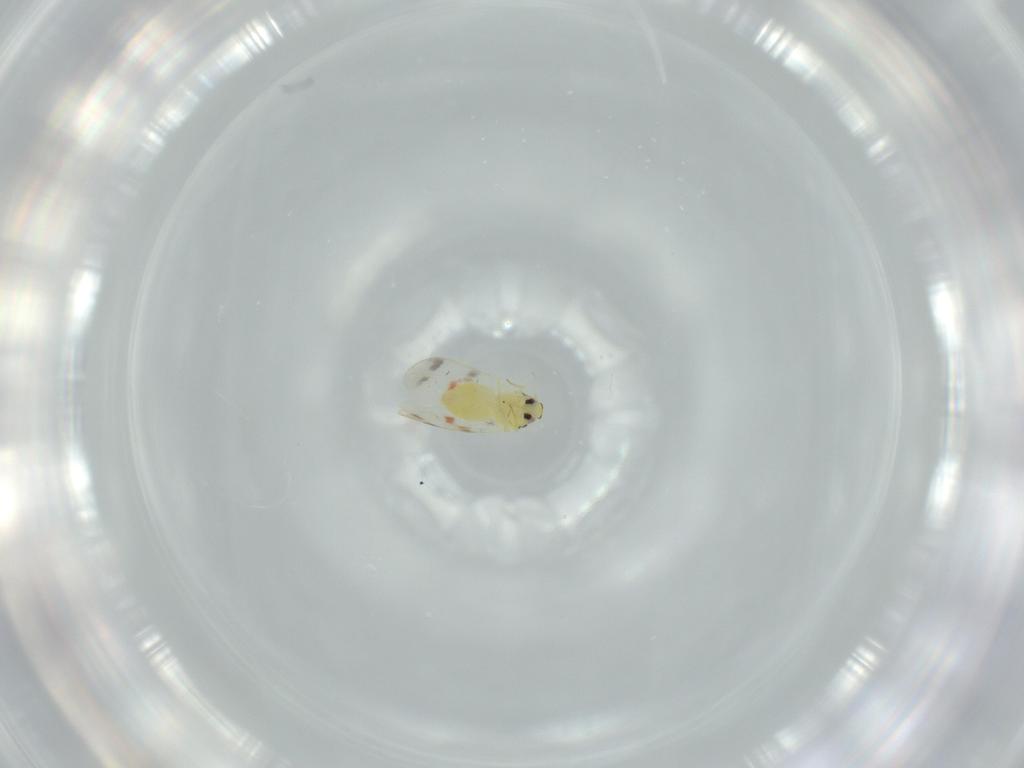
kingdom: Animalia
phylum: Arthropoda
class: Insecta
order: Hemiptera
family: Aleyrodidae
